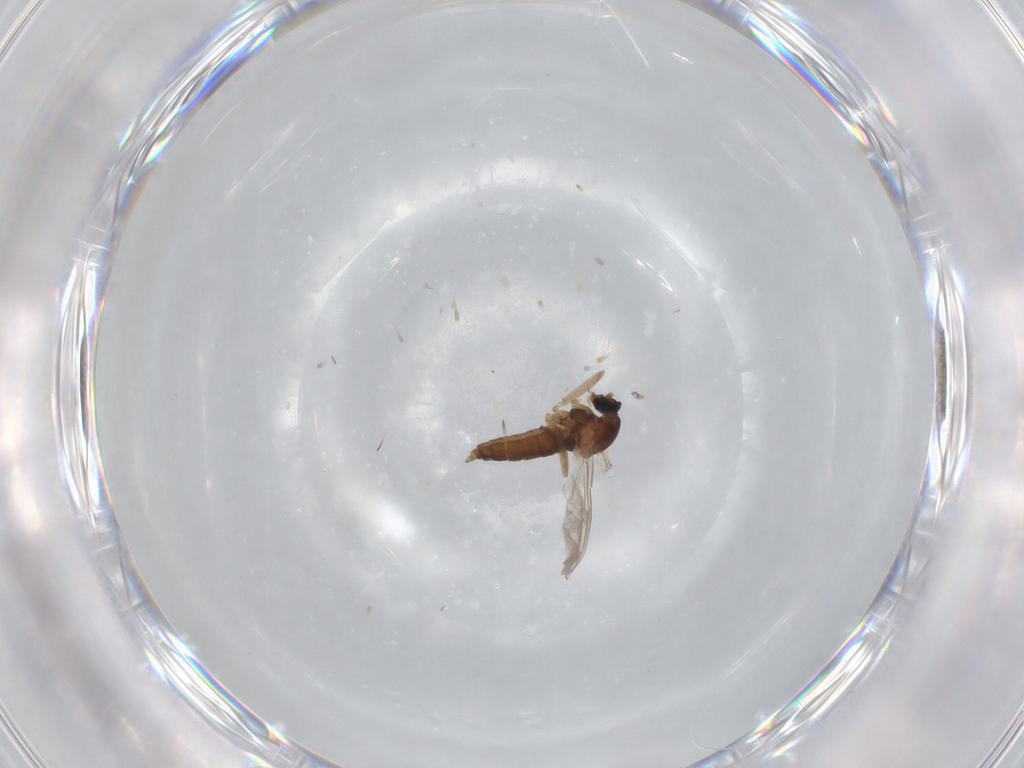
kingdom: Animalia
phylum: Arthropoda
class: Insecta
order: Diptera
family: Cecidomyiidae
